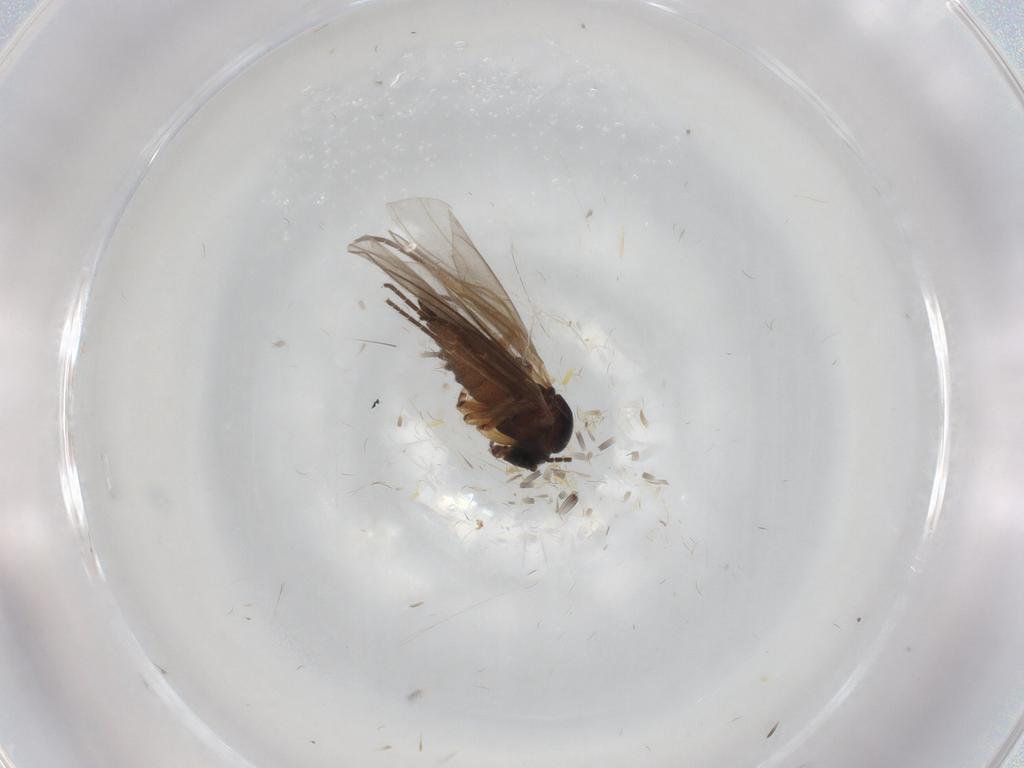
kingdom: Animalia
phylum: Arthropoda
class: Insecta
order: Diptera
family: Sciaridae
